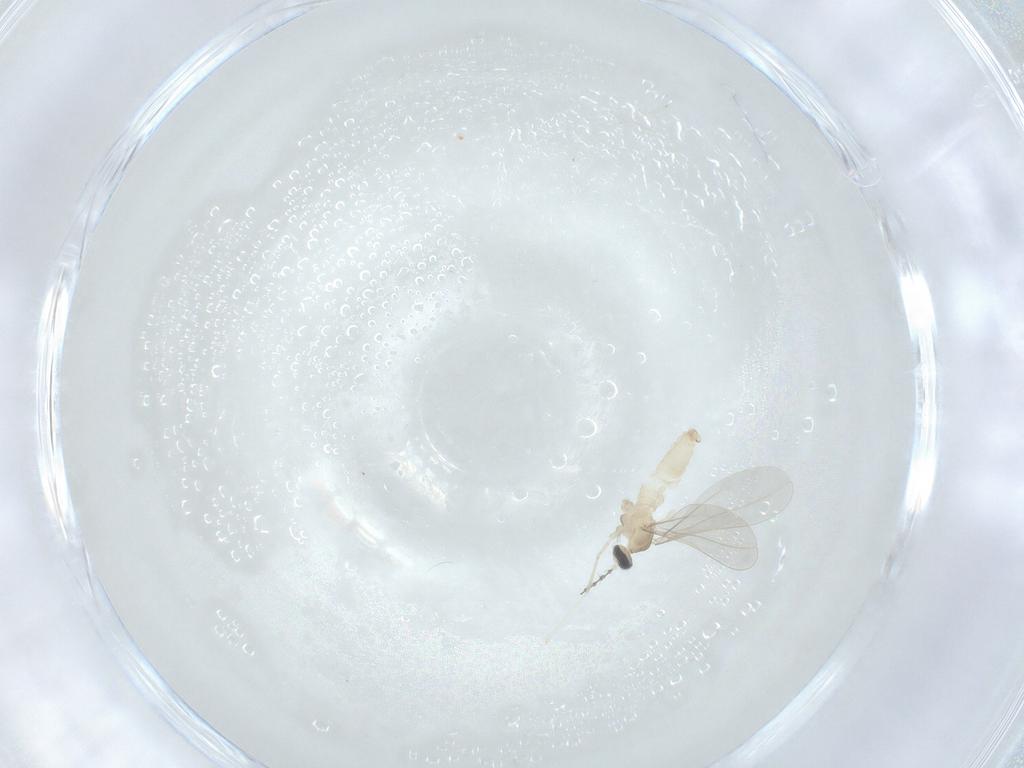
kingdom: Animalia
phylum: Arthropoda
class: Insecta
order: Diptera
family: Cecidomyiidae
